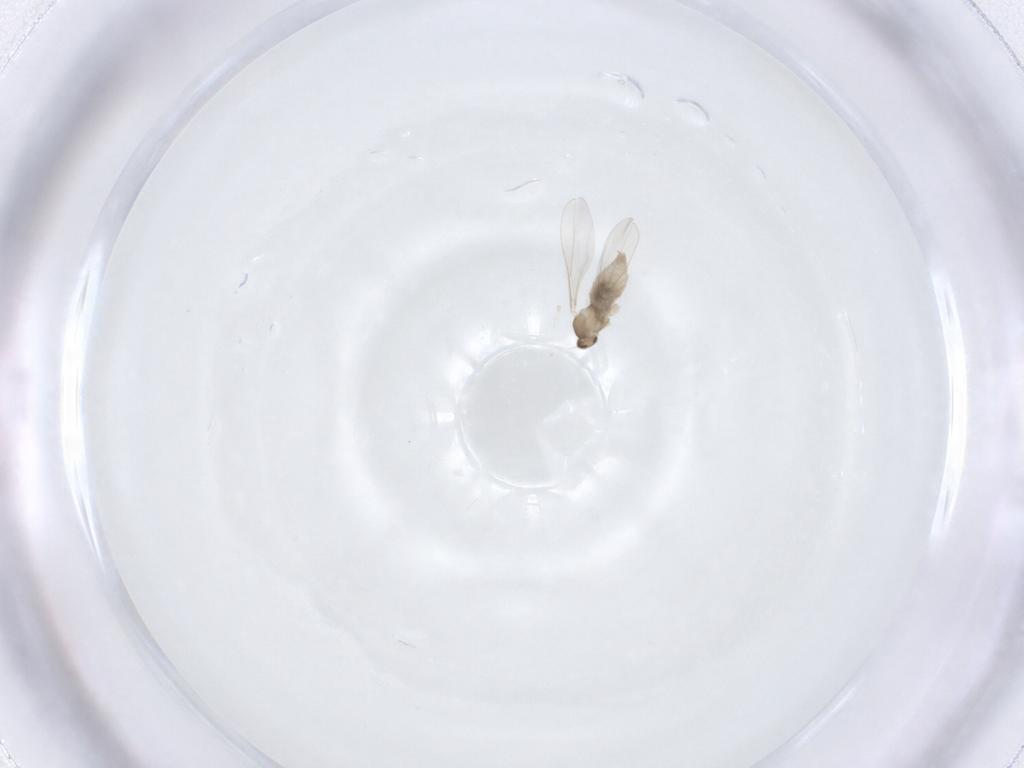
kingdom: Animalia
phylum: Arthropoda
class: Insecta
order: Diptera
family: Cecidomyiidae
